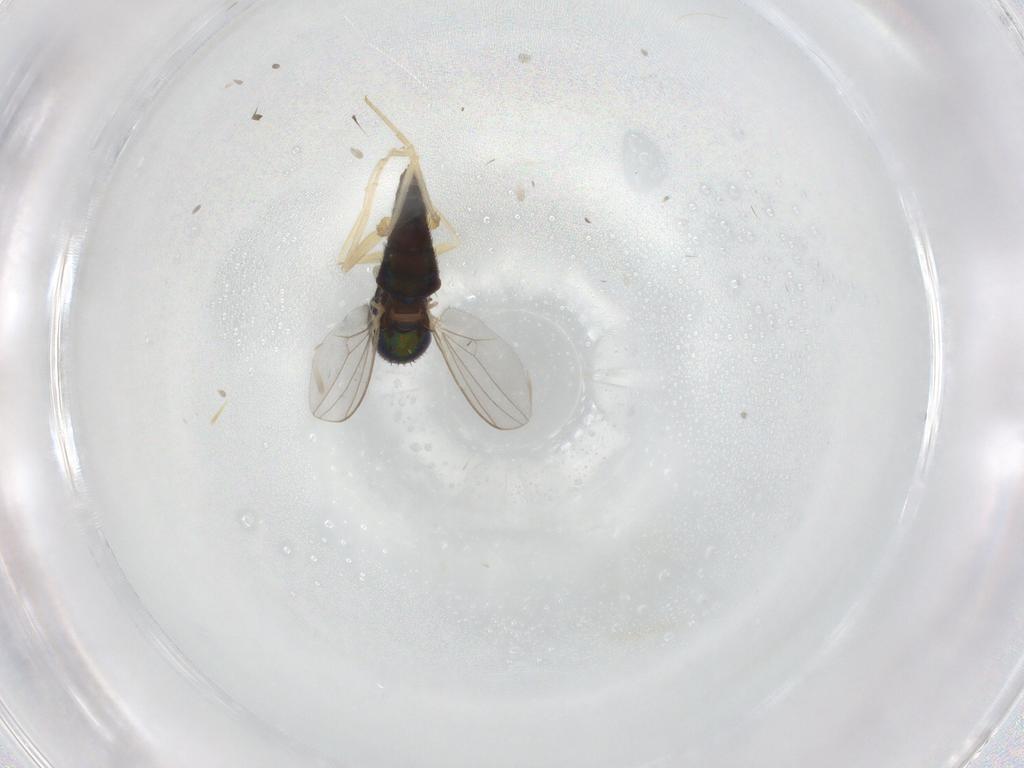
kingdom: Animalia
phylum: Arthropoda
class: Insecta
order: Diptera
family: Dolichopodidae
